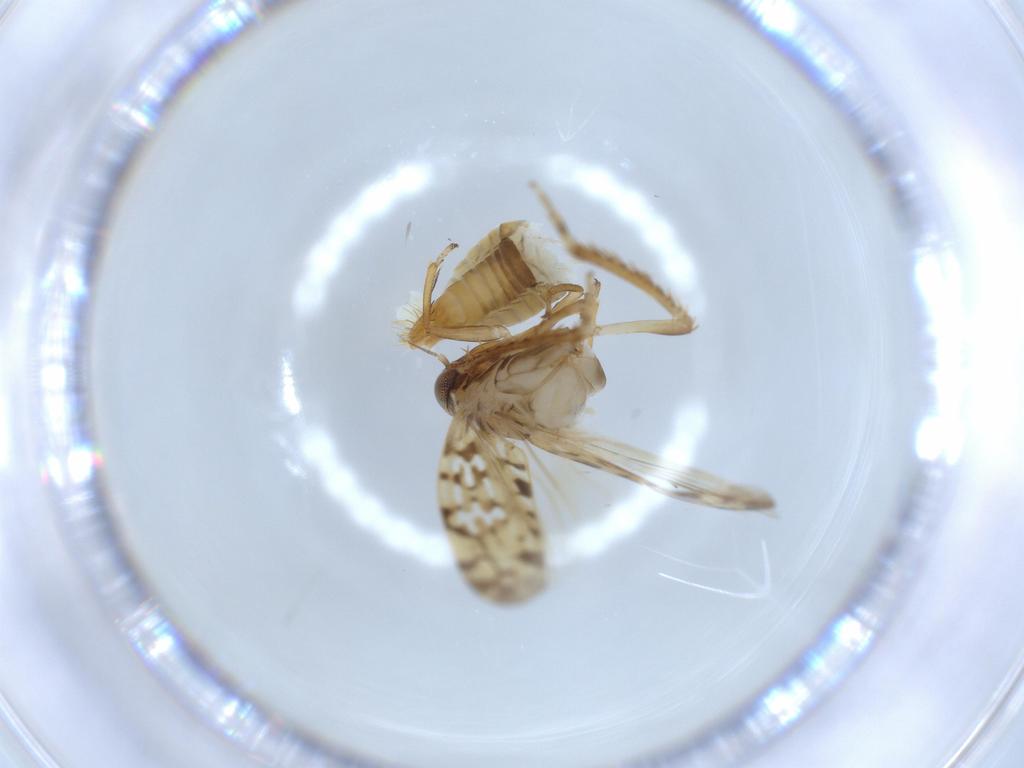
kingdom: Animalia
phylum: Arthropoda
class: Insecta
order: Hemiptera
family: Cicadellidae
